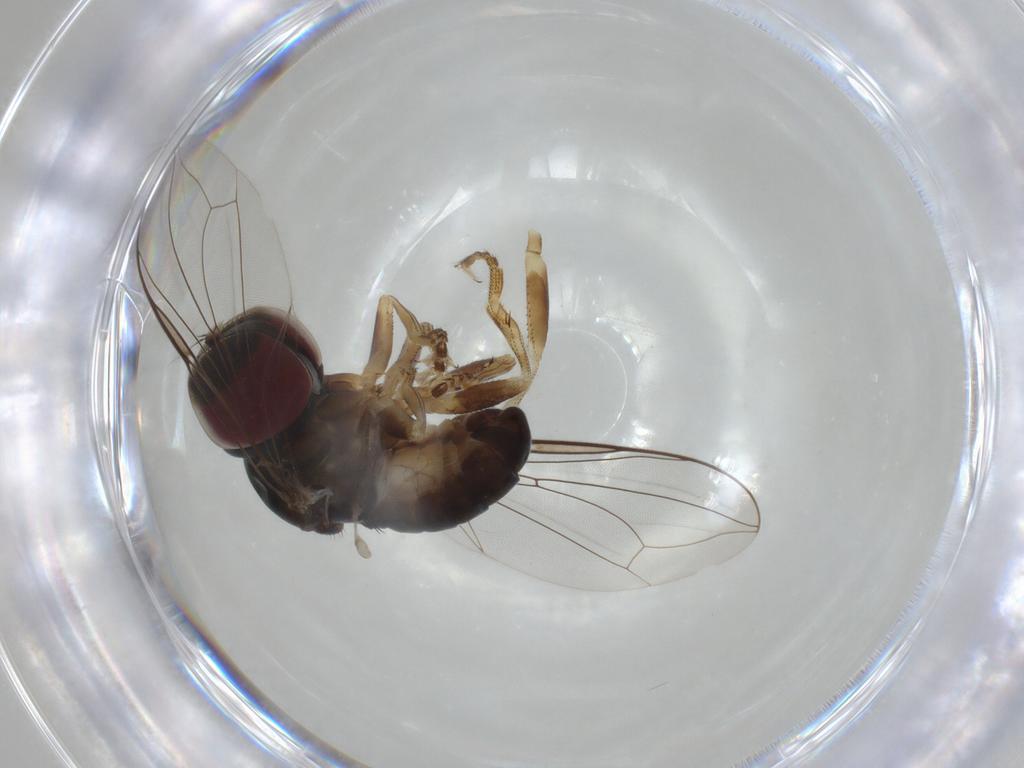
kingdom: Animalia
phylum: Arthropoda
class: Insecta
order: Diptera
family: Pipunculidae
